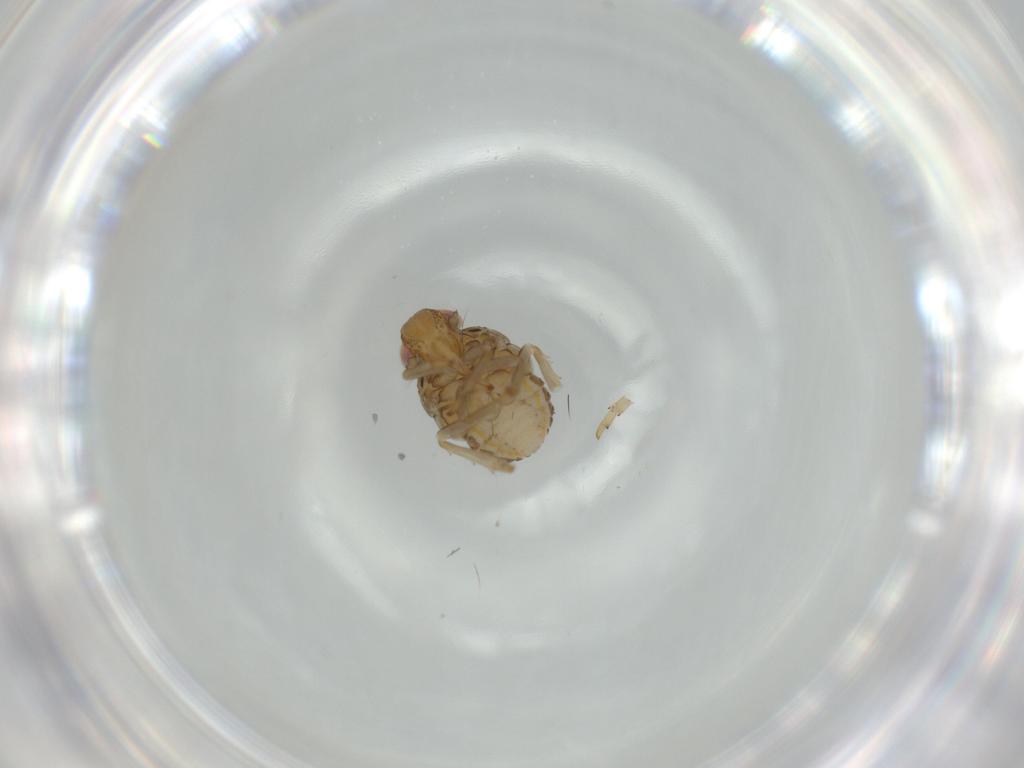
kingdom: Animalia
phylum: Arthropoda
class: Insecta
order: Hemiptera
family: Issidae
